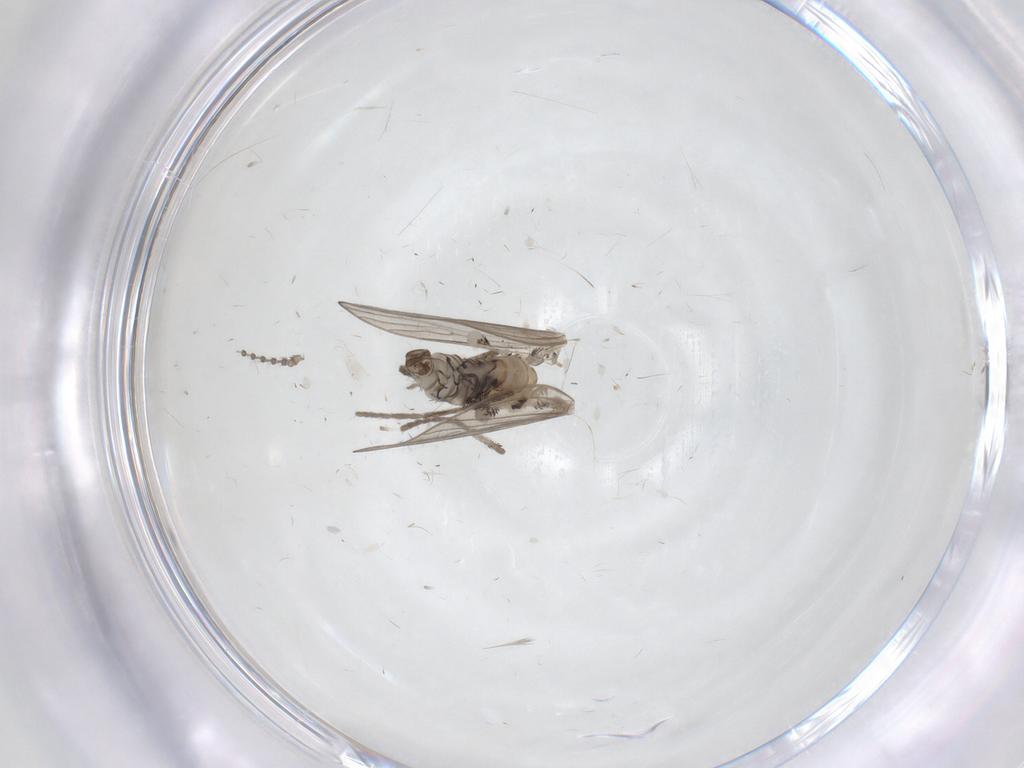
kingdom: Animalia
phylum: Arthropoda
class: Insecta
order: Diptera
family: Psychodidae
